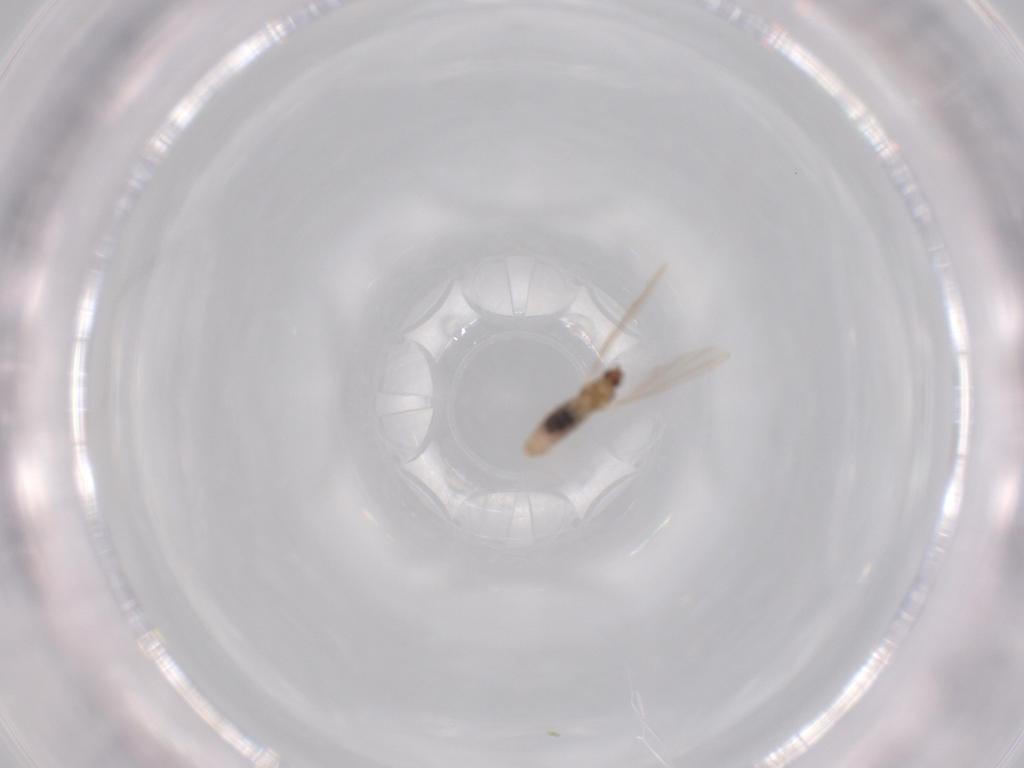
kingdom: Animalia
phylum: Arthropoda
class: Insecta
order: Diptera
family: Cecidomyiidae
